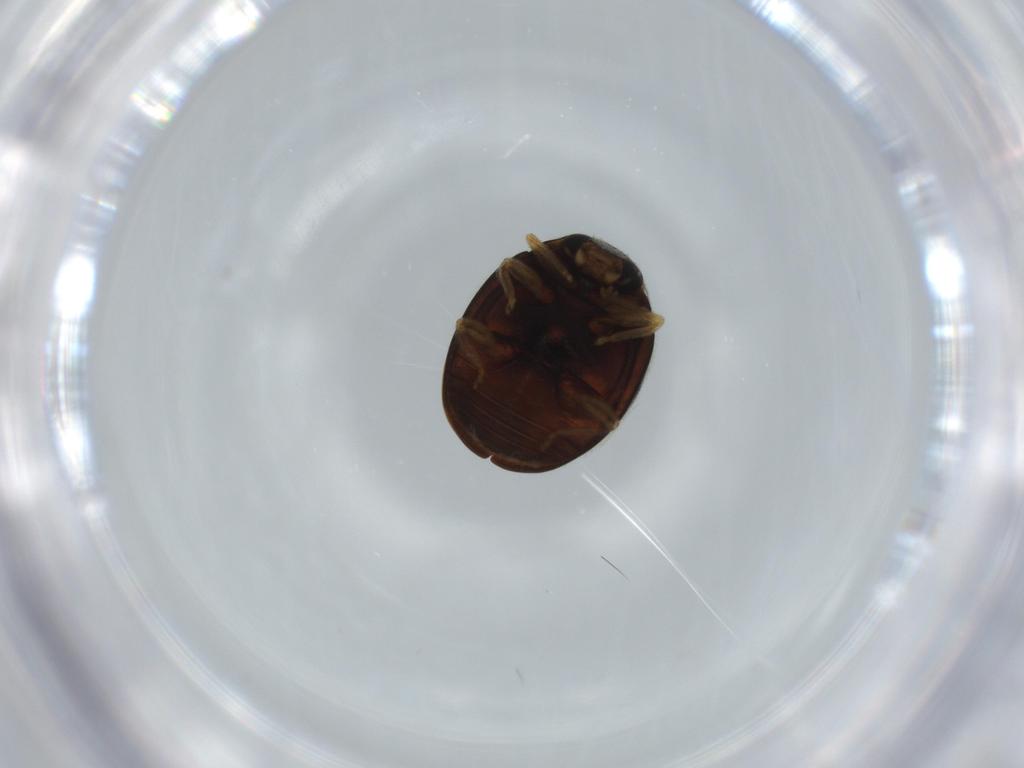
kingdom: Animalia
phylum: Arthropoda
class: Insecta
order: Coleoptera
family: Coccinellidae
